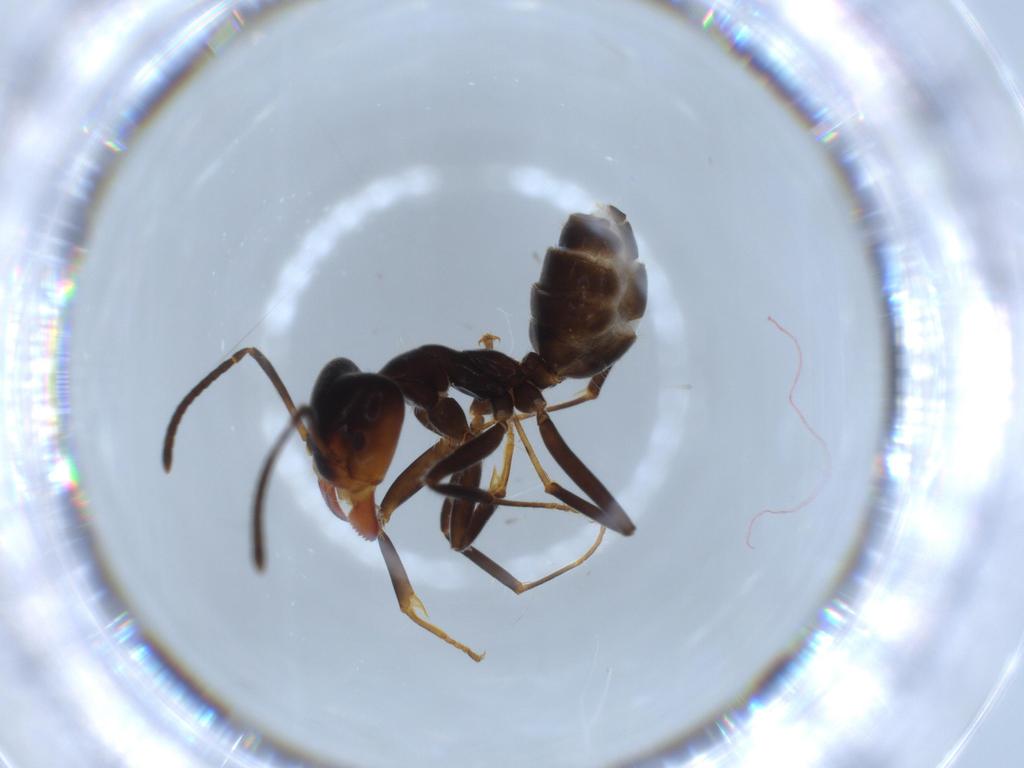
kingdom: Animalia
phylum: Arthropoda
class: Insecta
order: Hymenoptera
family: Formicidae
